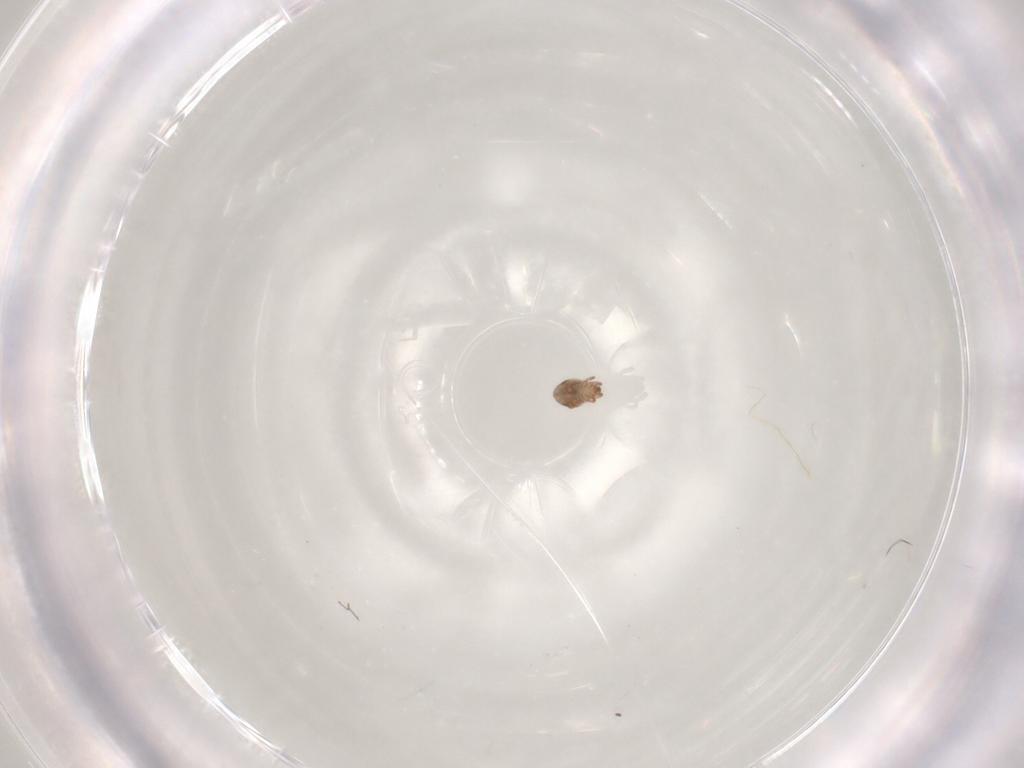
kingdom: Animalia
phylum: Arthropoda
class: Arachnida
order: Sarcoptiformes
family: Humerobatidae
